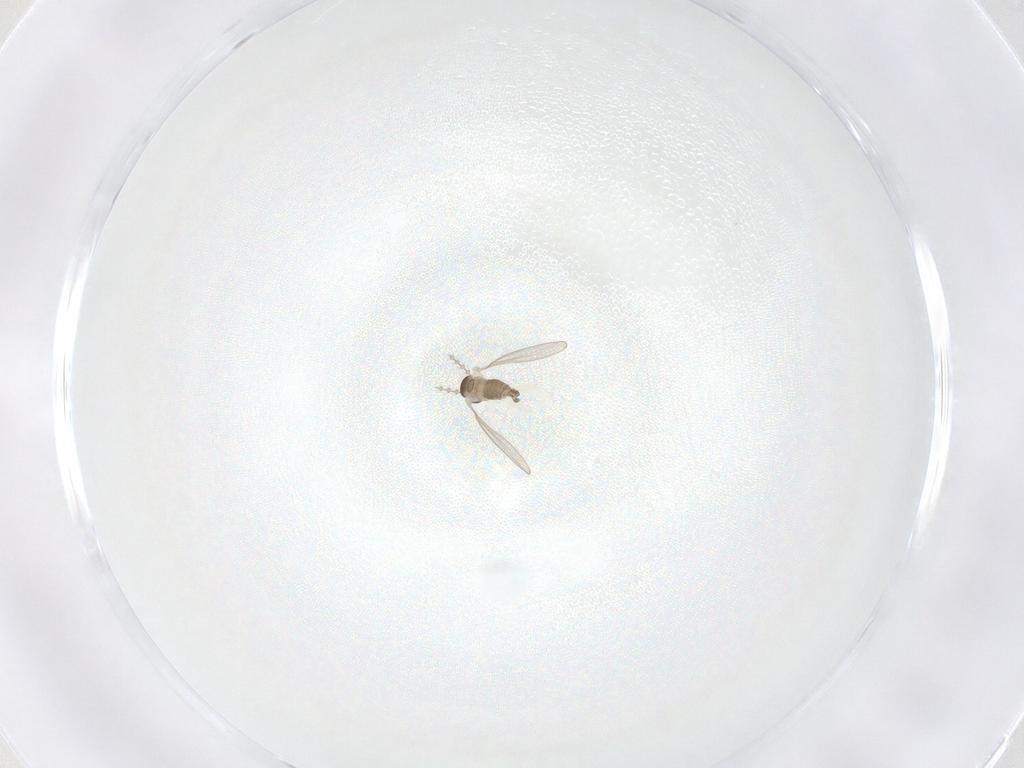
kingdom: Animalia
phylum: Arthropoda
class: Insecta
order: Diptera
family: Cecidomyiidae
